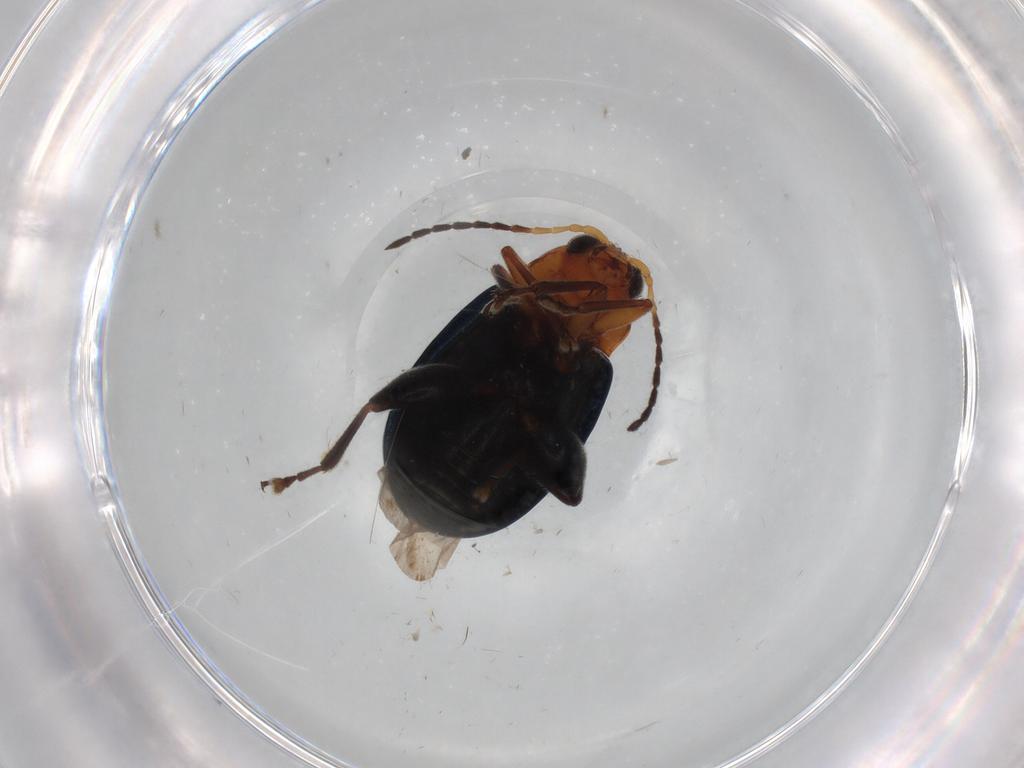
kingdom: Animalia
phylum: Arthropoda
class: Insecta
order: Coleoptera
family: Chrysomelidae
